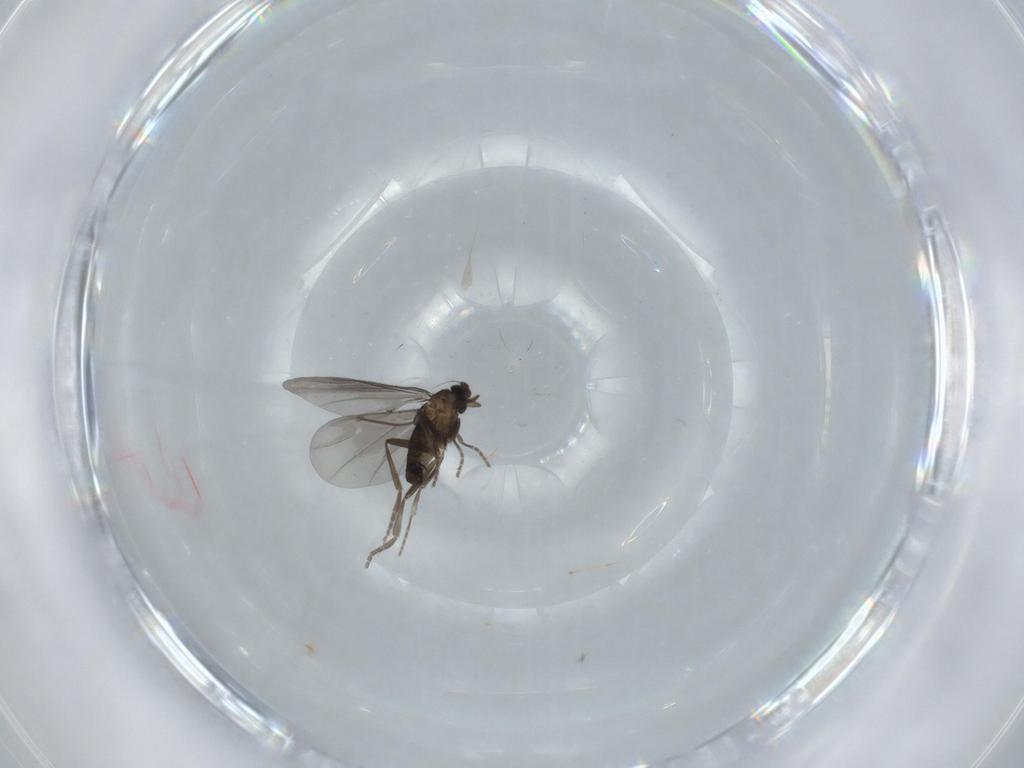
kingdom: Animalia
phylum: Arthropoda
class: Insecta
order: Diptera
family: Phoridae
